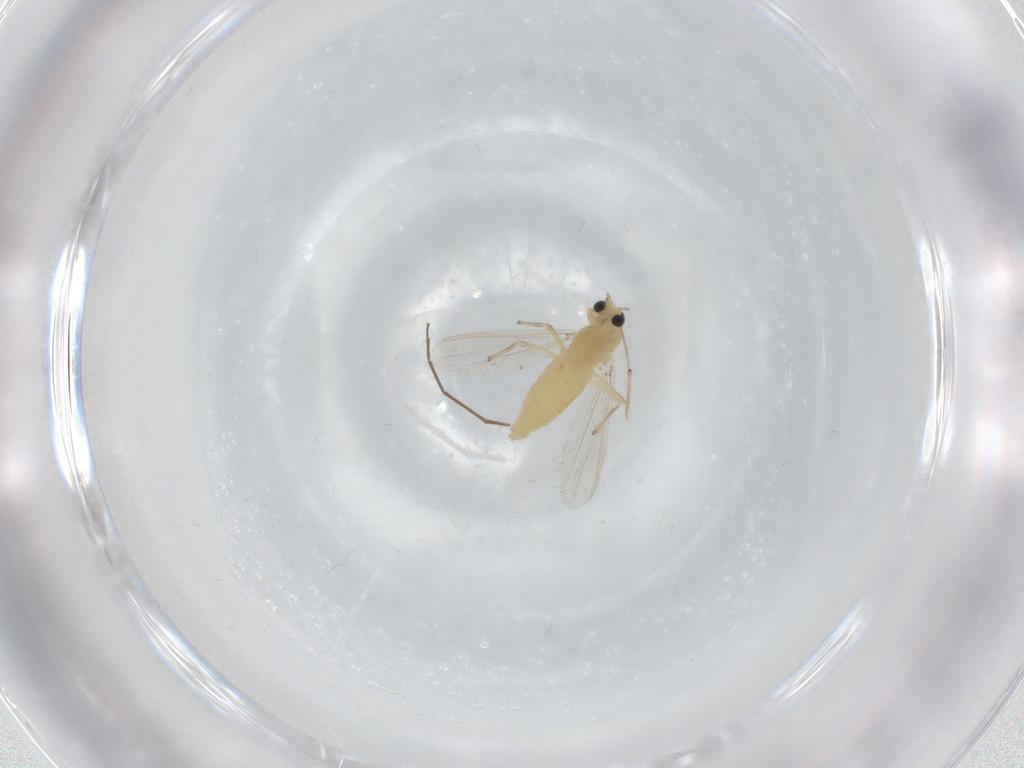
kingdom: Animalia
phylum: Arthropoda
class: Insecta
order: Diptera
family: Chironomidae
